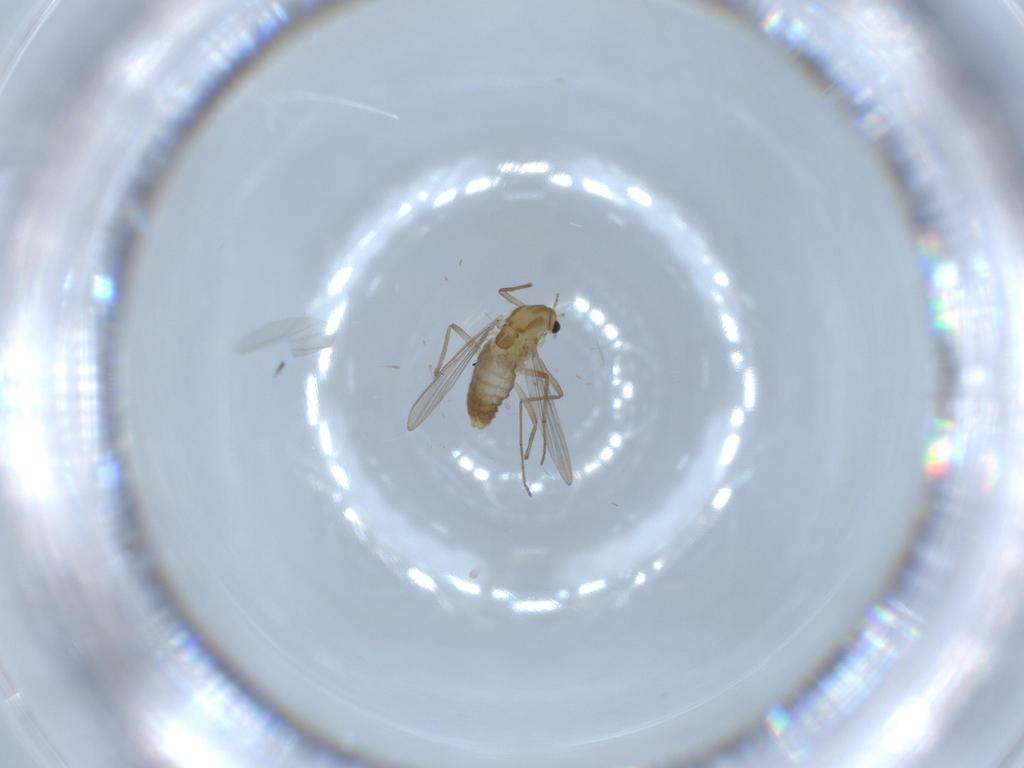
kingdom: Animalia
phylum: Arthropoda
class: Insecta
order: Diptera
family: Chironomidae
